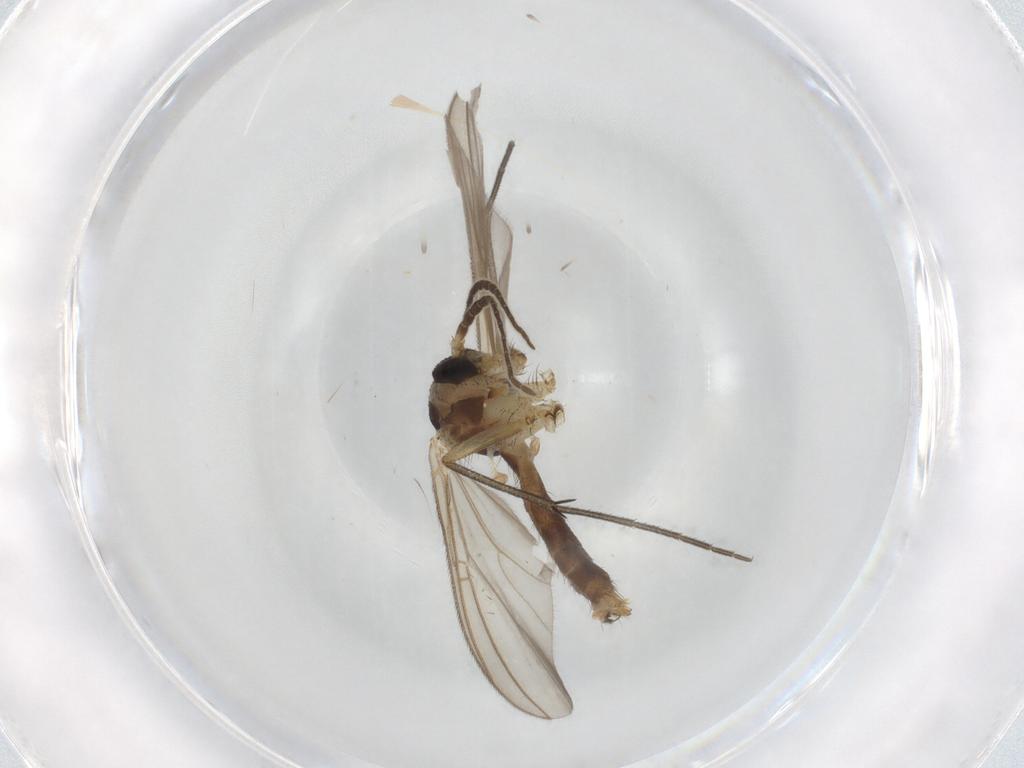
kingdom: Animalia
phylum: Arthropoda
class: Insecta
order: Diptera
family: Mycetophilidae
